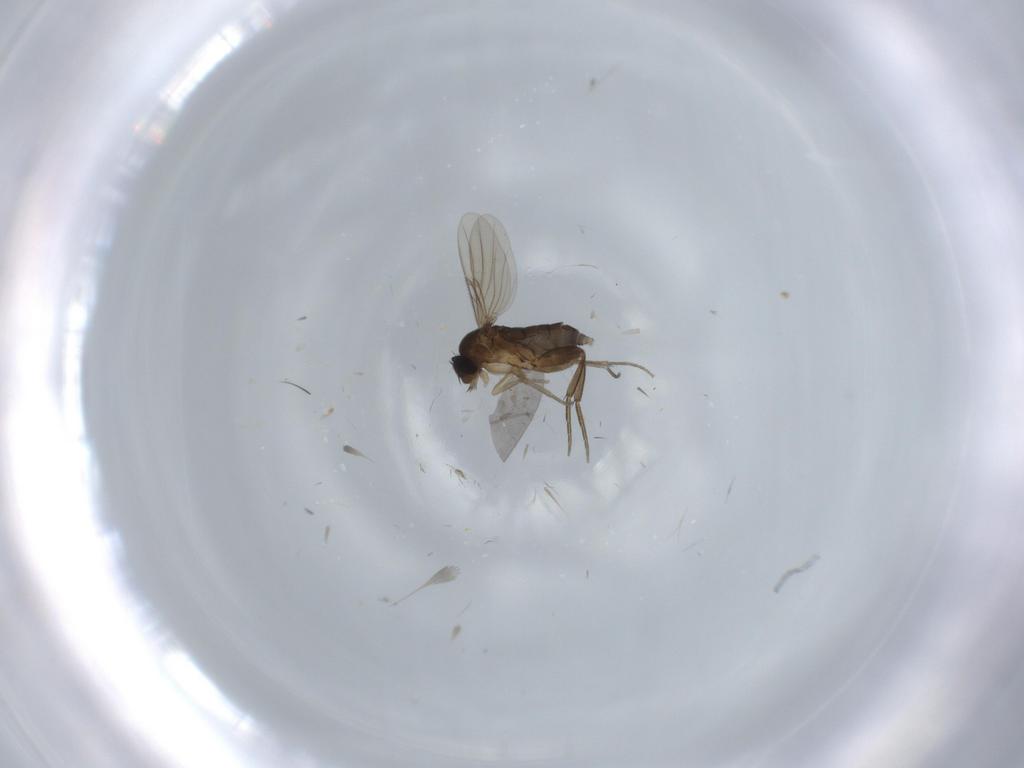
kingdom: Animalia
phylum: Arthropoda
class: Insecta
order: Diptera
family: Phoridae
